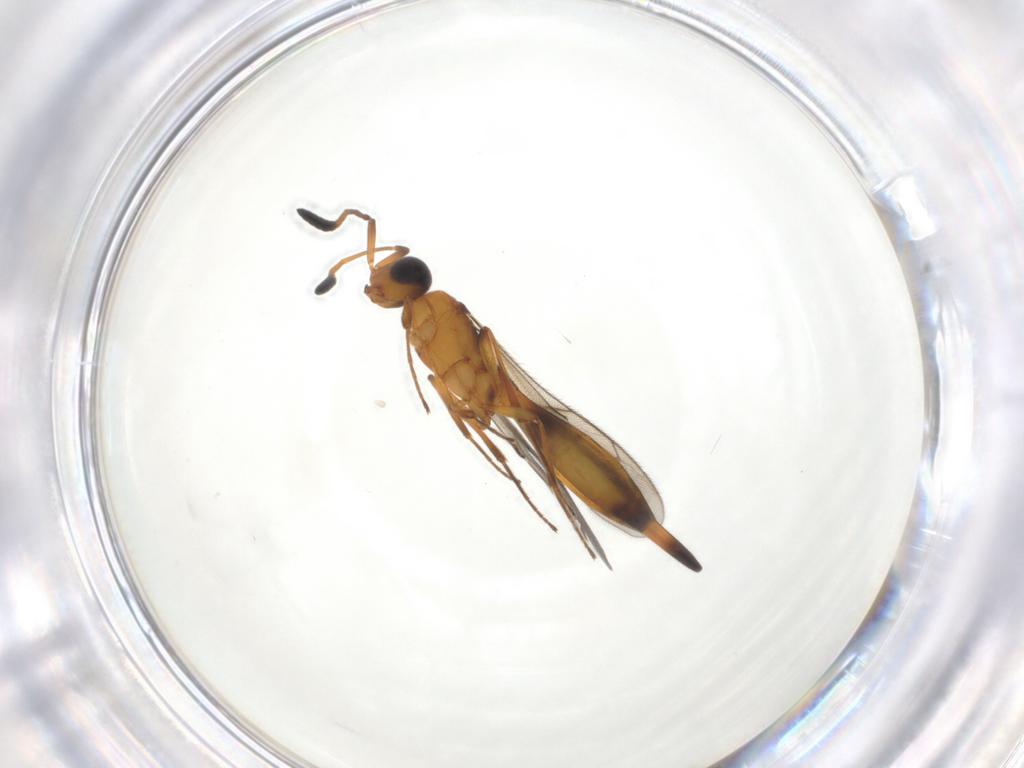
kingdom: Animalia
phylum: Arthropoda
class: Insecta
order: Hymenoptera
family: Scelionidae
